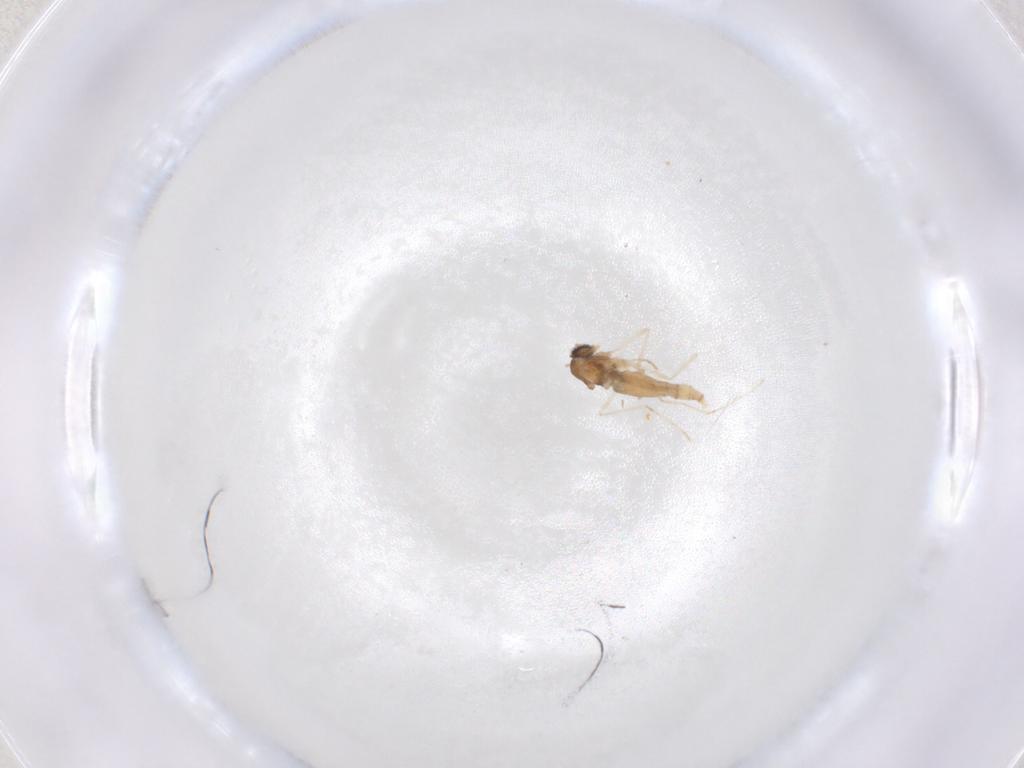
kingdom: Animalia
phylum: Arthropoda
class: Insecta
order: Diptera
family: Cecidomyiidae
